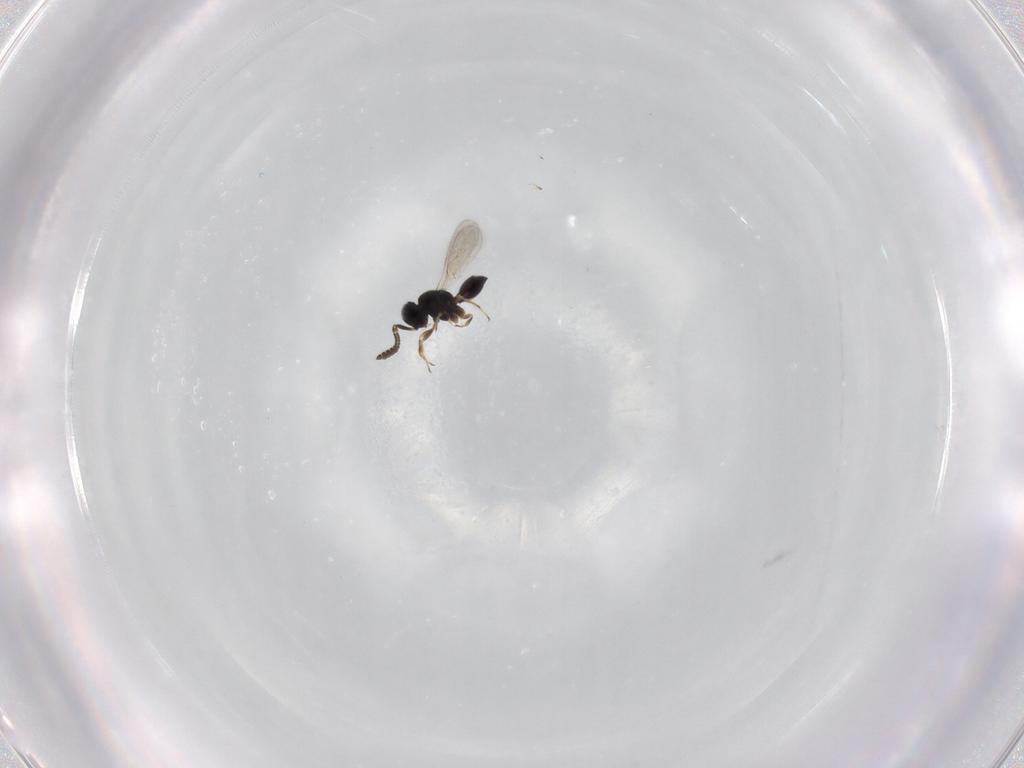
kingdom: Animalia
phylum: Arthropoda
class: Insecta
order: Hymenoptera
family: Scelionidae
